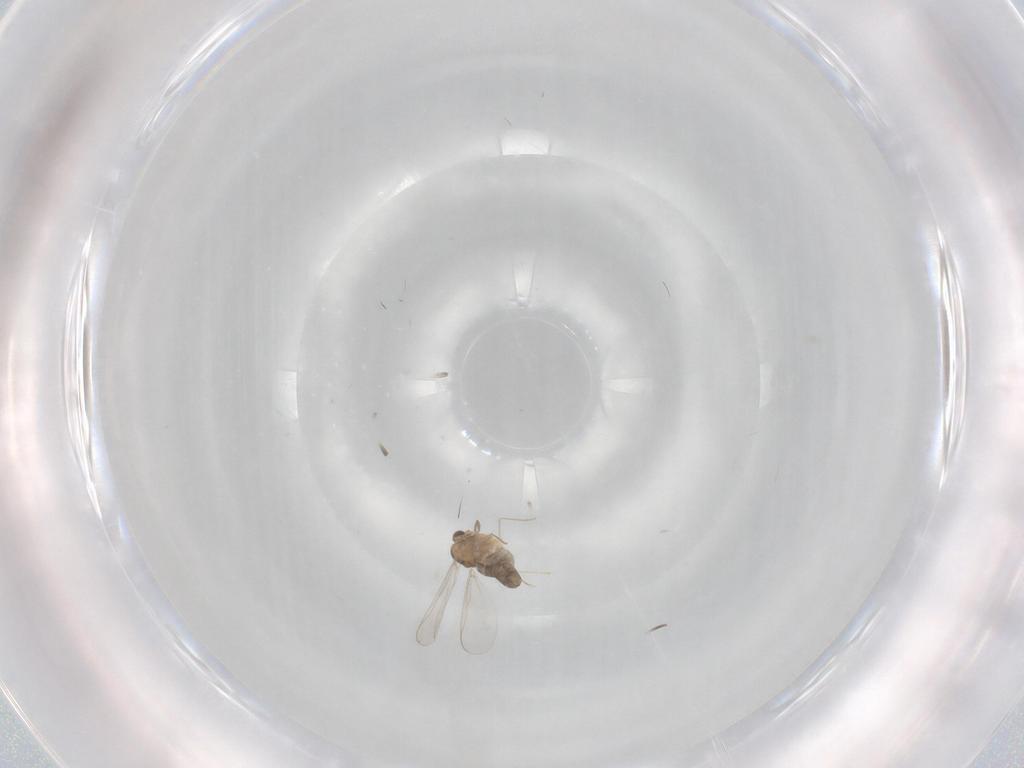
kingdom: Animalia
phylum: Arthropoda
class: Insecta
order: Diptera
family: Chironomidae
